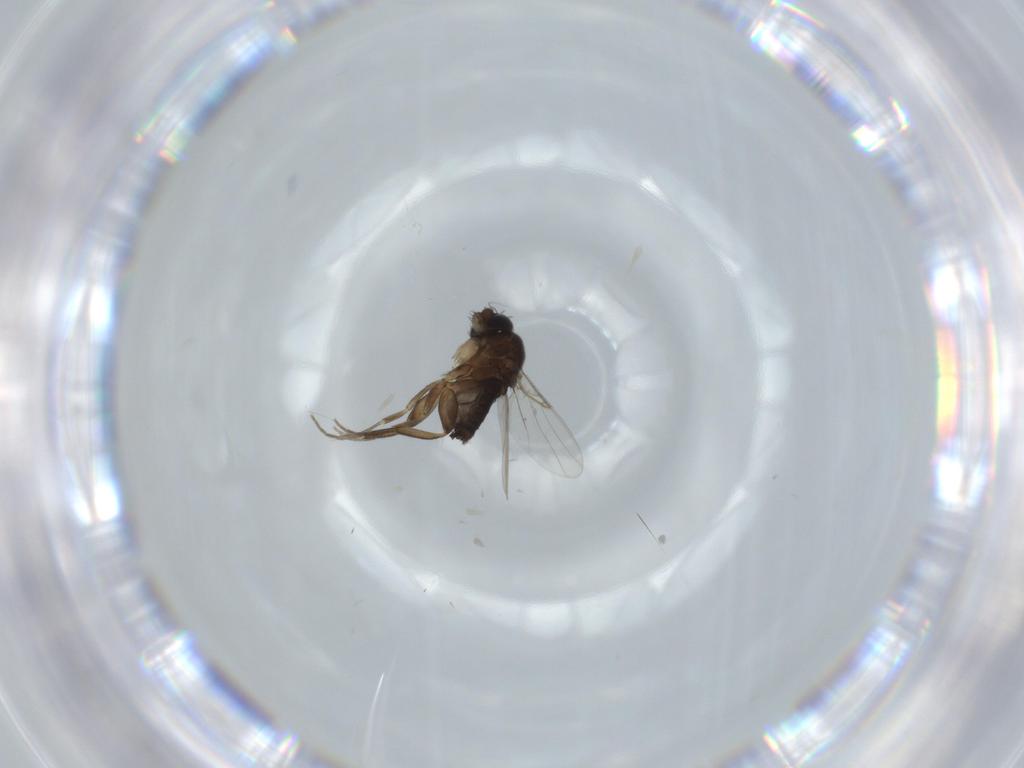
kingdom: Animalia
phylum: Arthropoda
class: Insecta
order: Diptera
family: Phoridae
